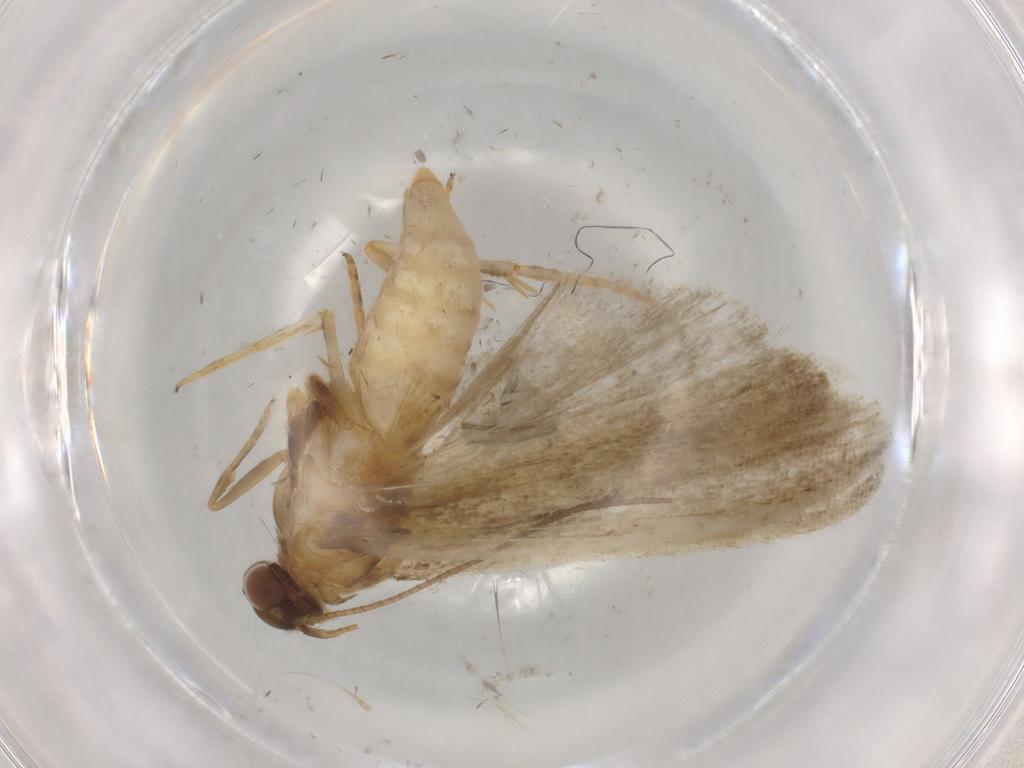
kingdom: Animalia
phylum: Arthropoda
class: Insecta
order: Lepidoptera
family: Noctuidae
